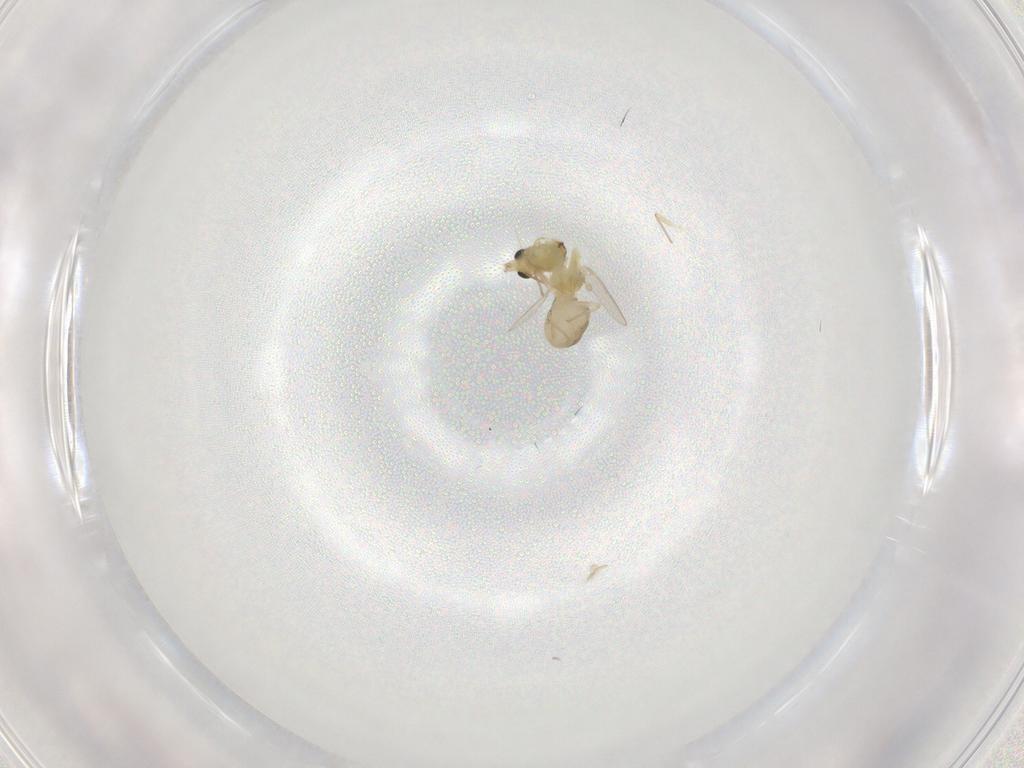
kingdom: Animalia
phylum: Arthropoda
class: Insecta
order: Diptera
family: Chironomidae
